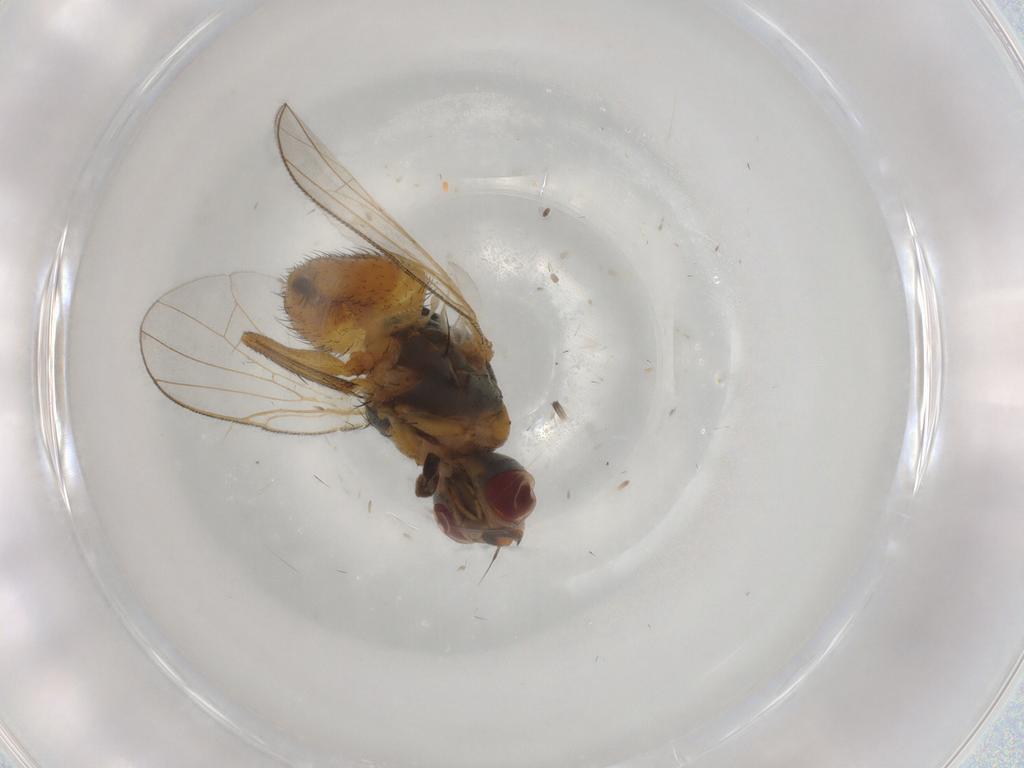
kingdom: Animalia
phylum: Arthropoda
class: Insecta
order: Diptera
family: Muscidae
